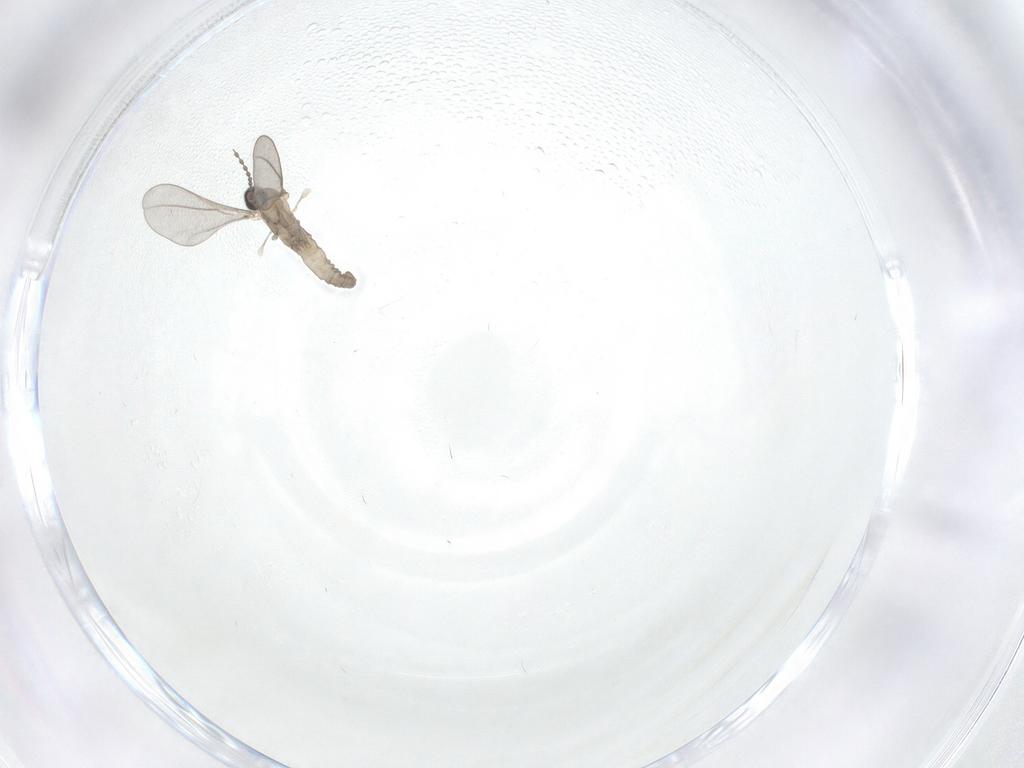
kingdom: Animalia
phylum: Arthropoda
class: Insecta
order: Diptera
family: Cecidomyiidae
